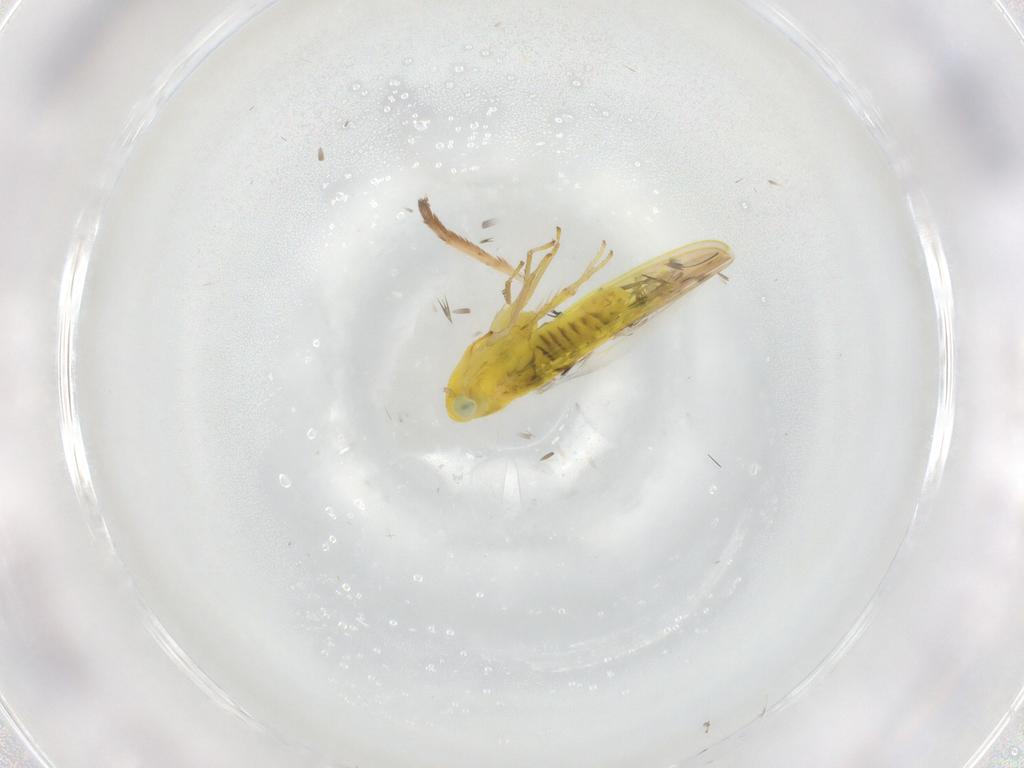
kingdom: Animalia
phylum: Arthropoda
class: Insecta
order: Hemiptera
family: Cicadellidae
